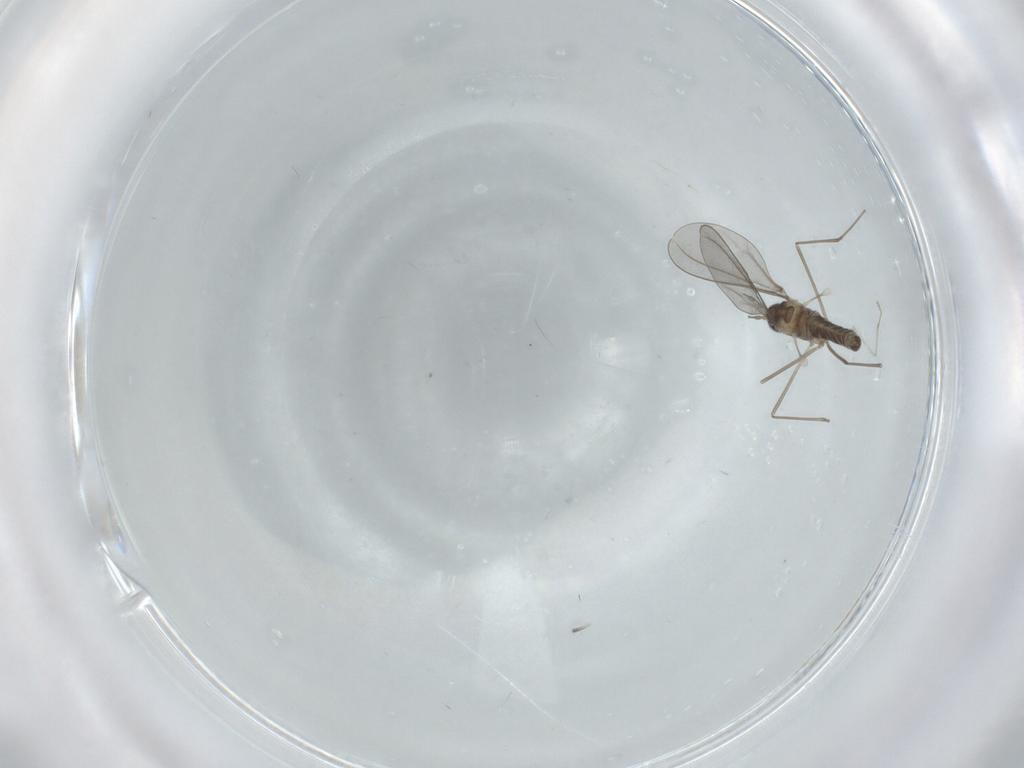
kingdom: Animalia
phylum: Arthropoda
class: Insecta
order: Diptera
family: Cecidomyiidae
